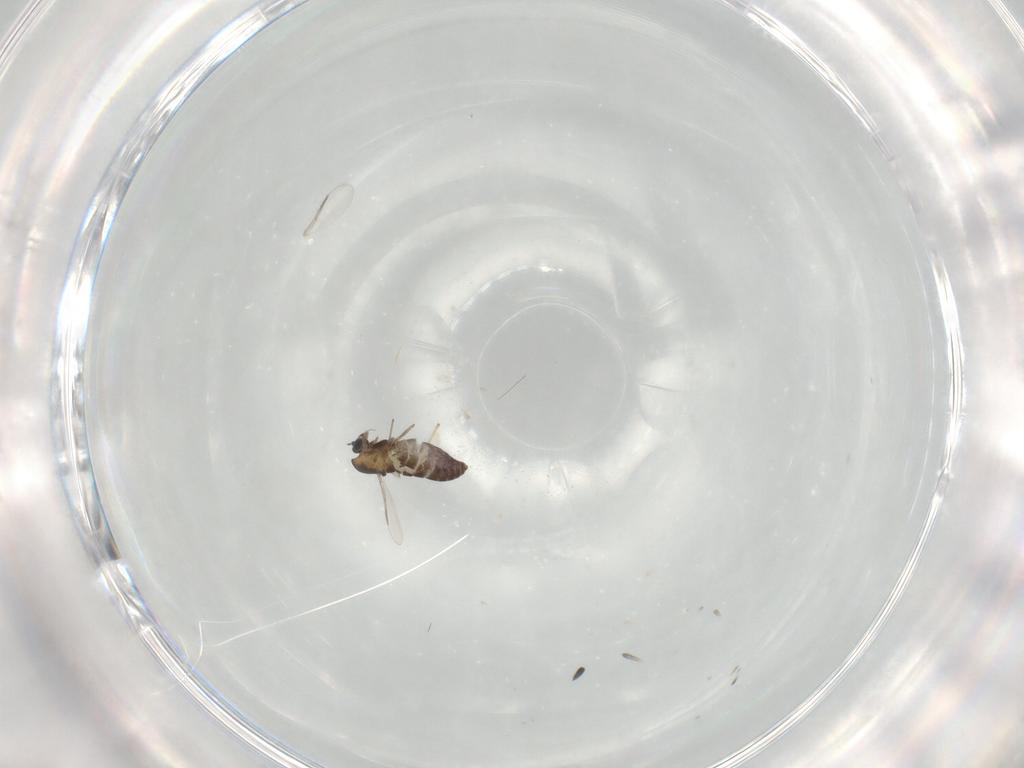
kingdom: Animalia
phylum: Arthropoda
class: Insecta
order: Diptera
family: Chironomidae
